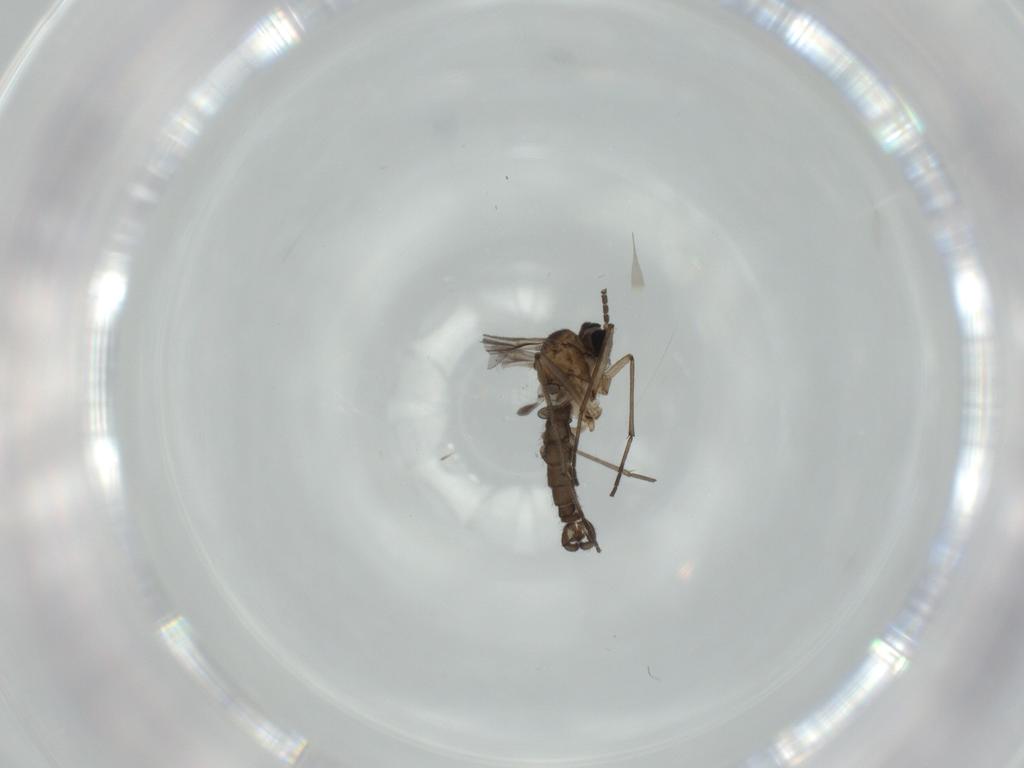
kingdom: Animalia
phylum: Arthropoda
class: Insecta
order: Diptera
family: Sciaridae
